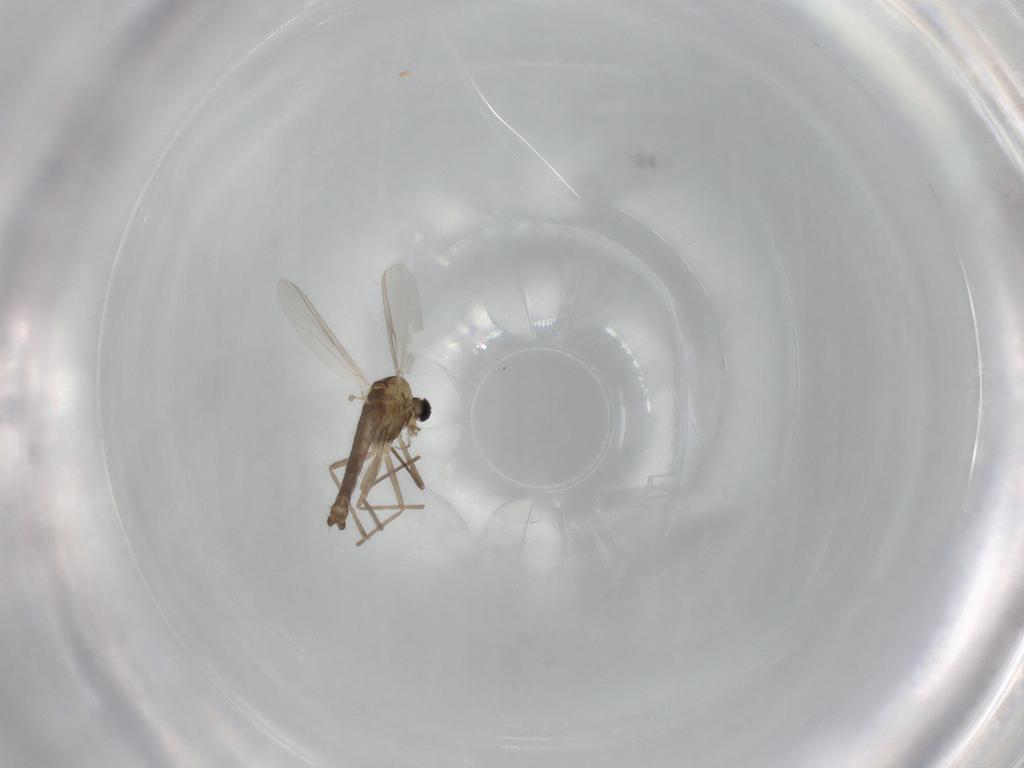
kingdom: Animalia
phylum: Arthropoda
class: Insecta
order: Diptera
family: Chironomidae
